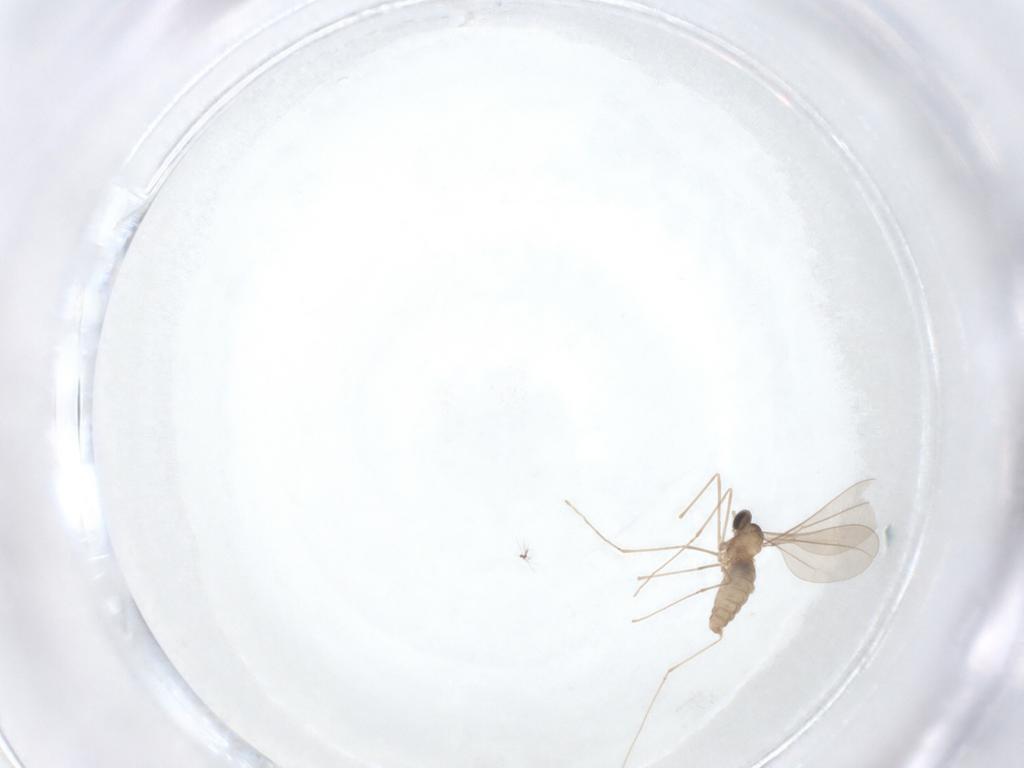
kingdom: Animalia
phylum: Arthropoda
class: Insecta
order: Diptera
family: Cecidomyiidae
